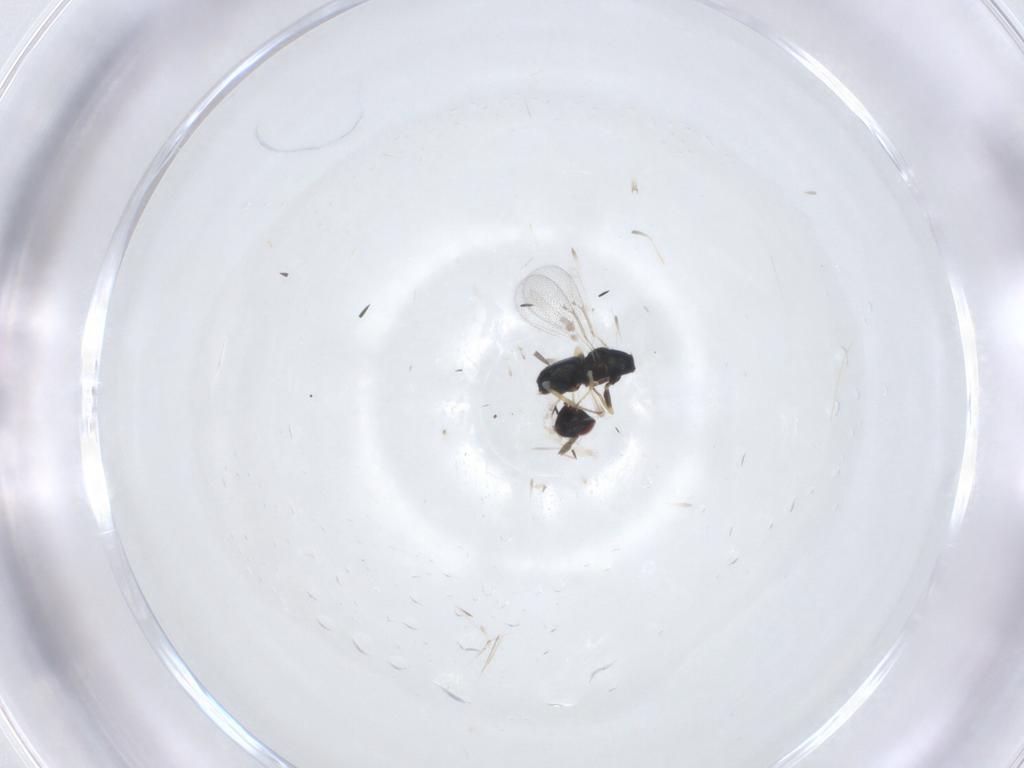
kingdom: Animalia
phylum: Arthropoda
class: Insecta
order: Hymenoptera
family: Eulophidae
